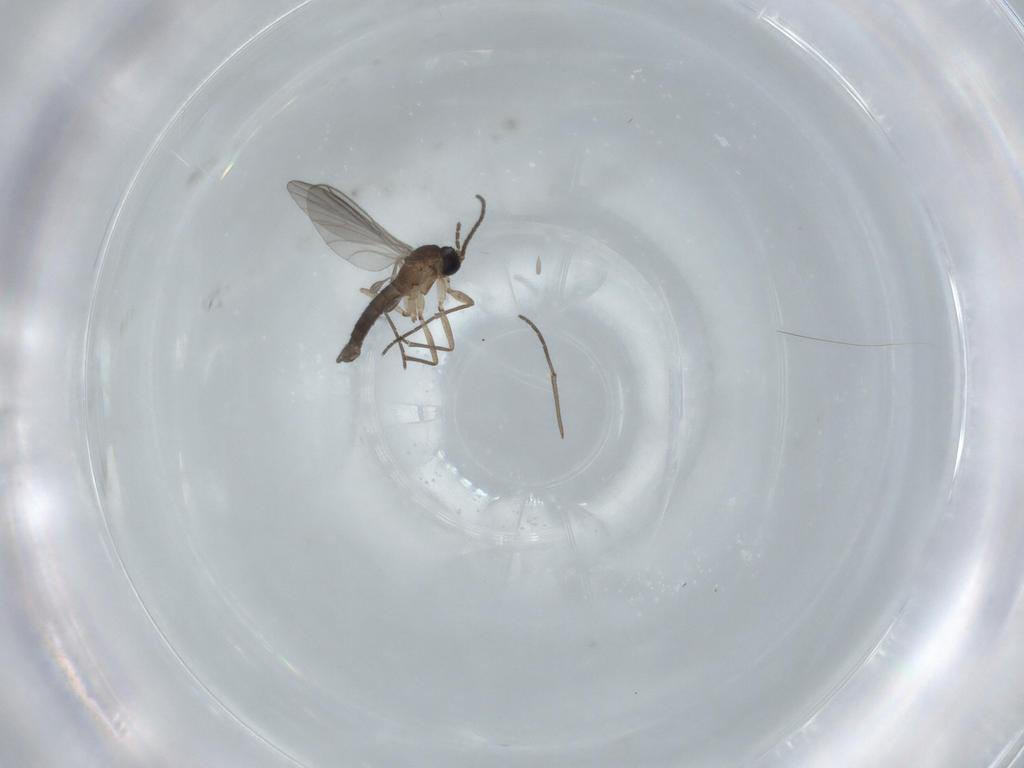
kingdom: Animalia
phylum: Arthropoda
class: Insecta
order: Diptera
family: Sciaridae
